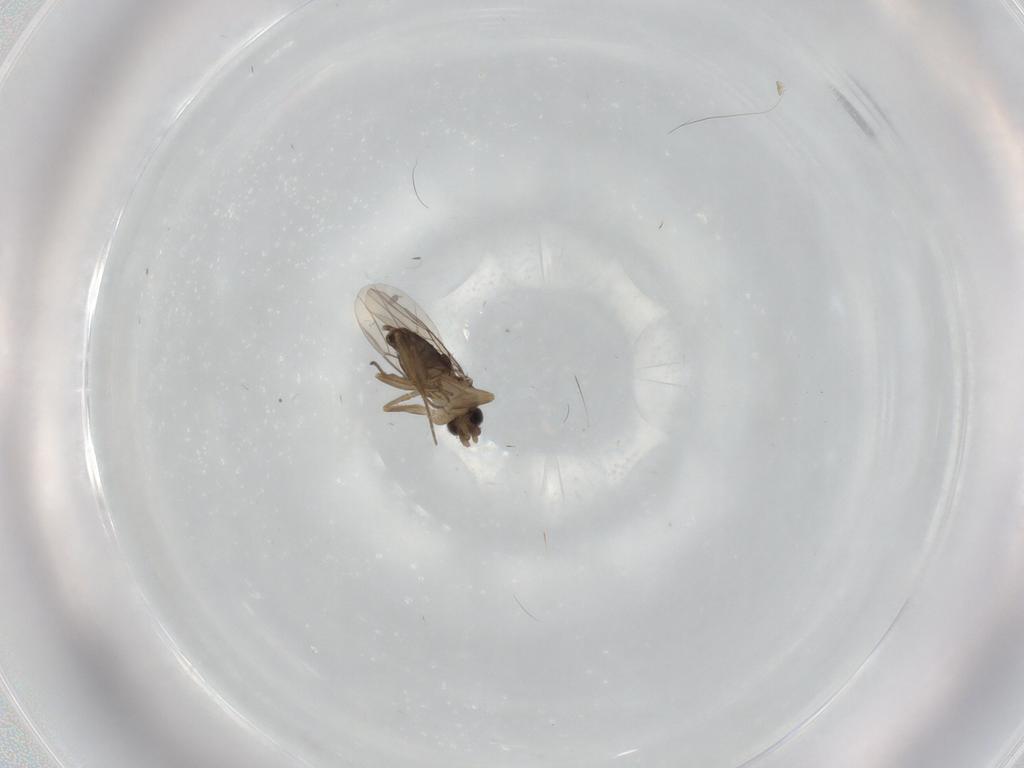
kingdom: Animalia
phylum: Arthropoda
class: Insecta
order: Diptera
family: Phoridae
